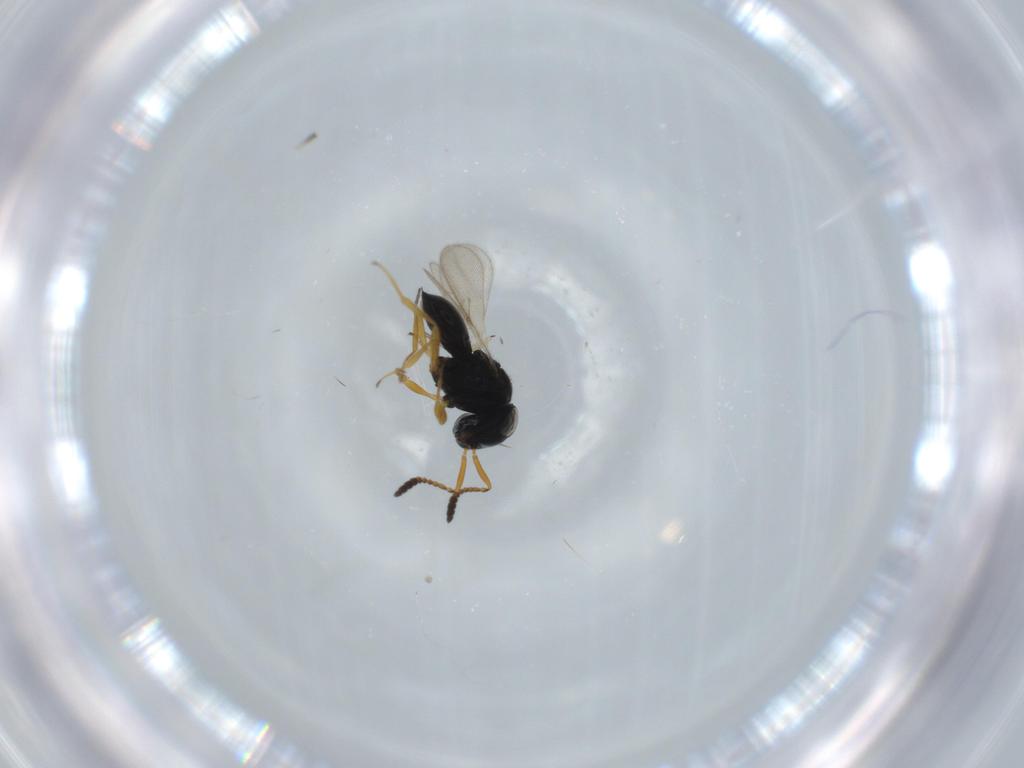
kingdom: Animalia
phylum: Arthropoda
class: Insecta
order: Hymenoptera
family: Scelionidae
